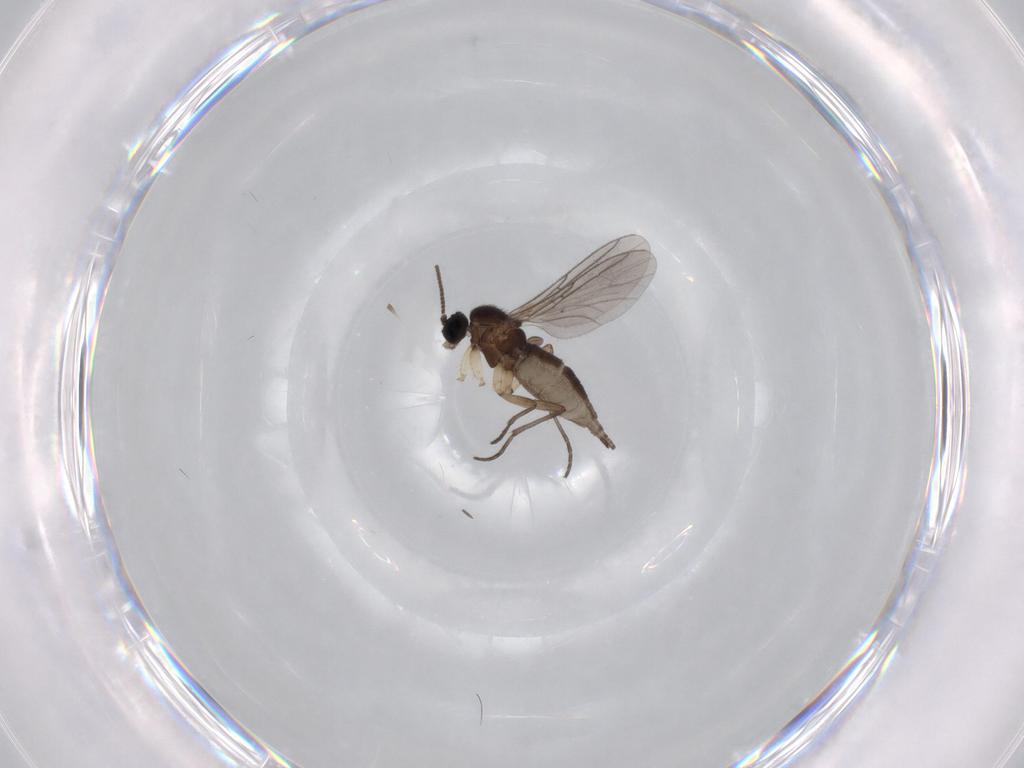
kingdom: Animalia
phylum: Arthropoda
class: Insecta
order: Diptera
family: Sciaridae
